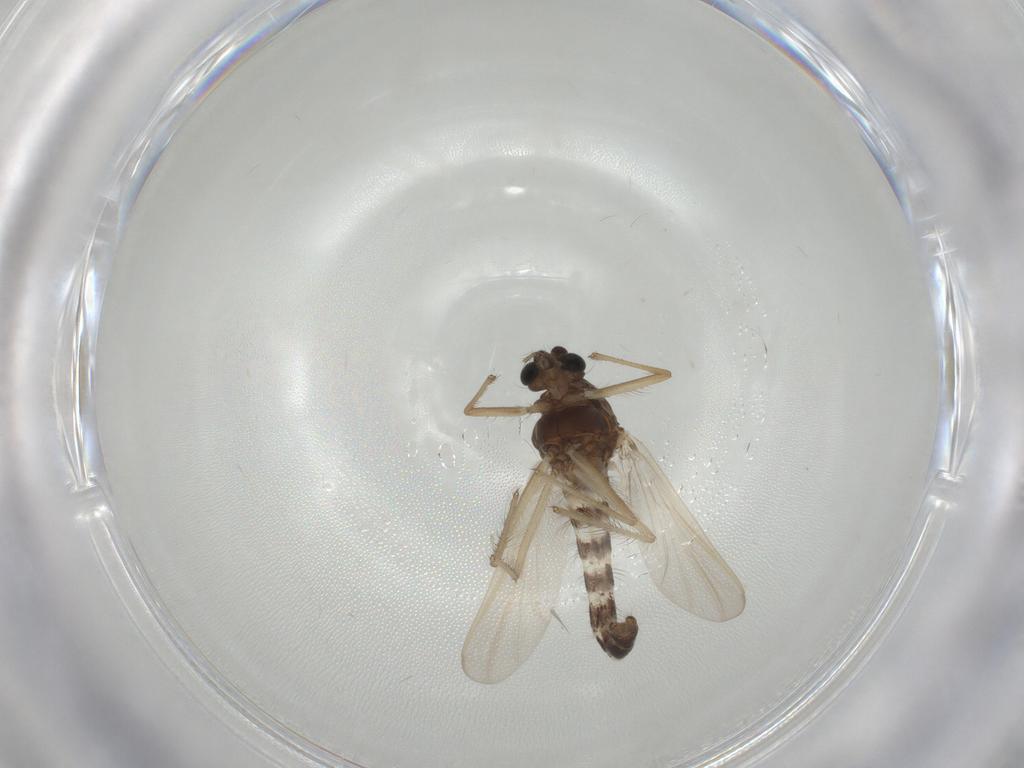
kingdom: Animalia
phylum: Arthropoda
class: Insecta
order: Diptera
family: Chironomidae
